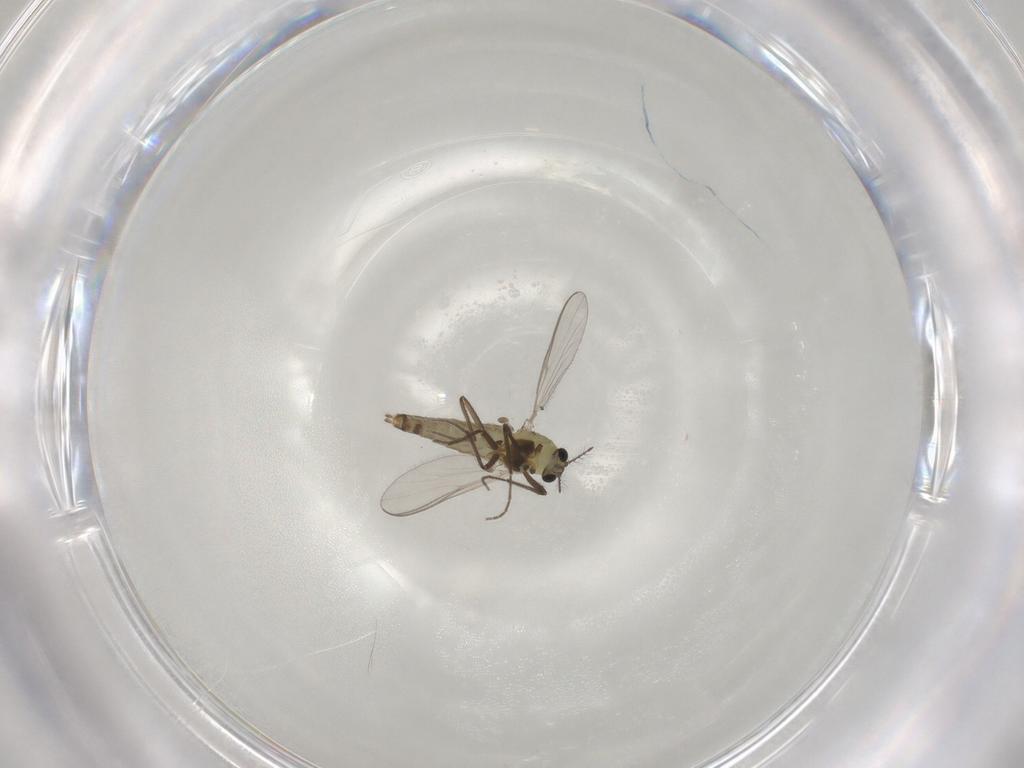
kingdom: Animalia
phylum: Arthropoda
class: Insecta
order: Diptera
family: Chironomidae
